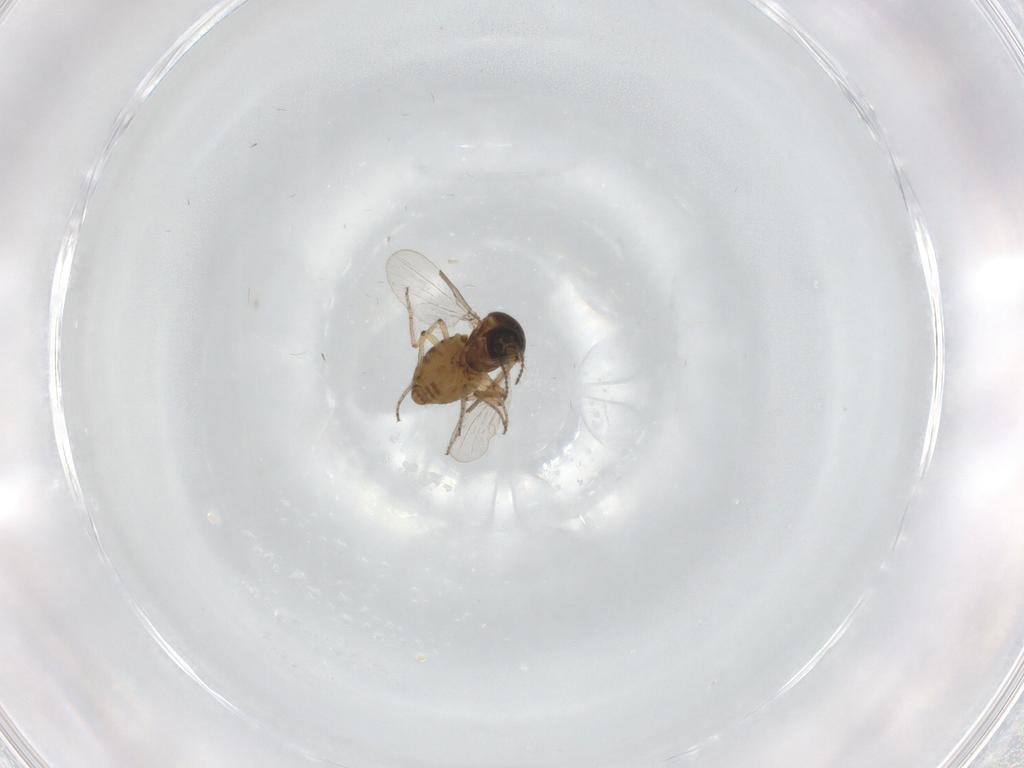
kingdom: Animalia
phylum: Arthropoda
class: Insecta
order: Diptera
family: Ceratopogonidae
